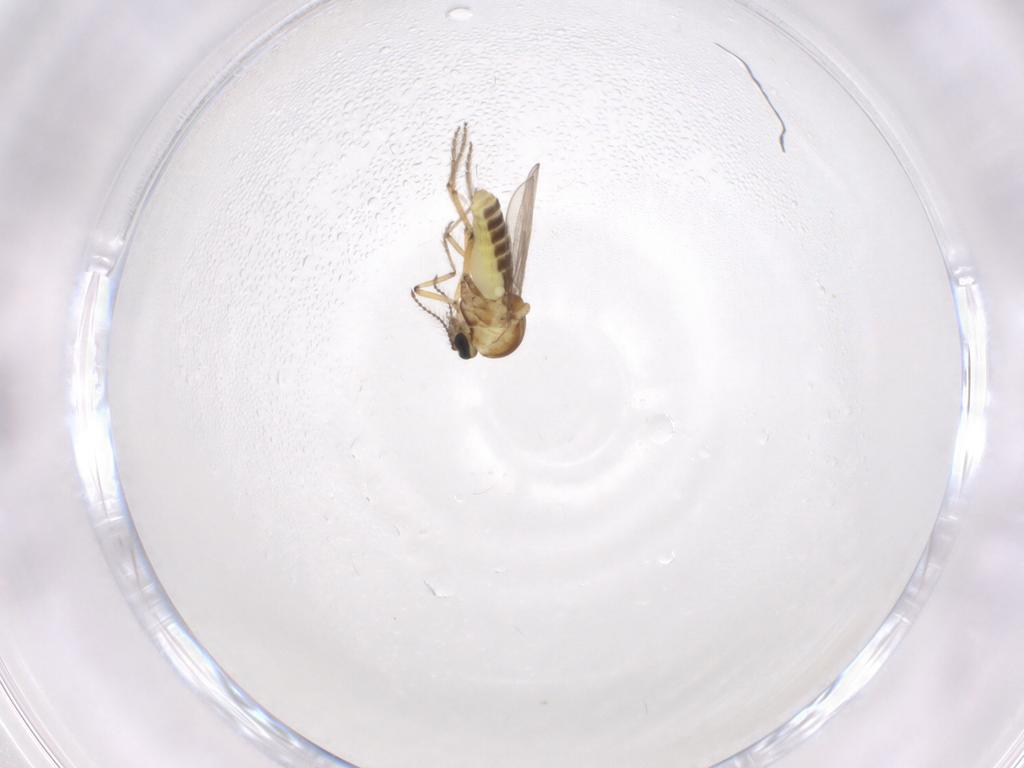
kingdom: Animalia
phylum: Arthropoda
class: Insecta
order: Diptera
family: Ceratopogonidae
